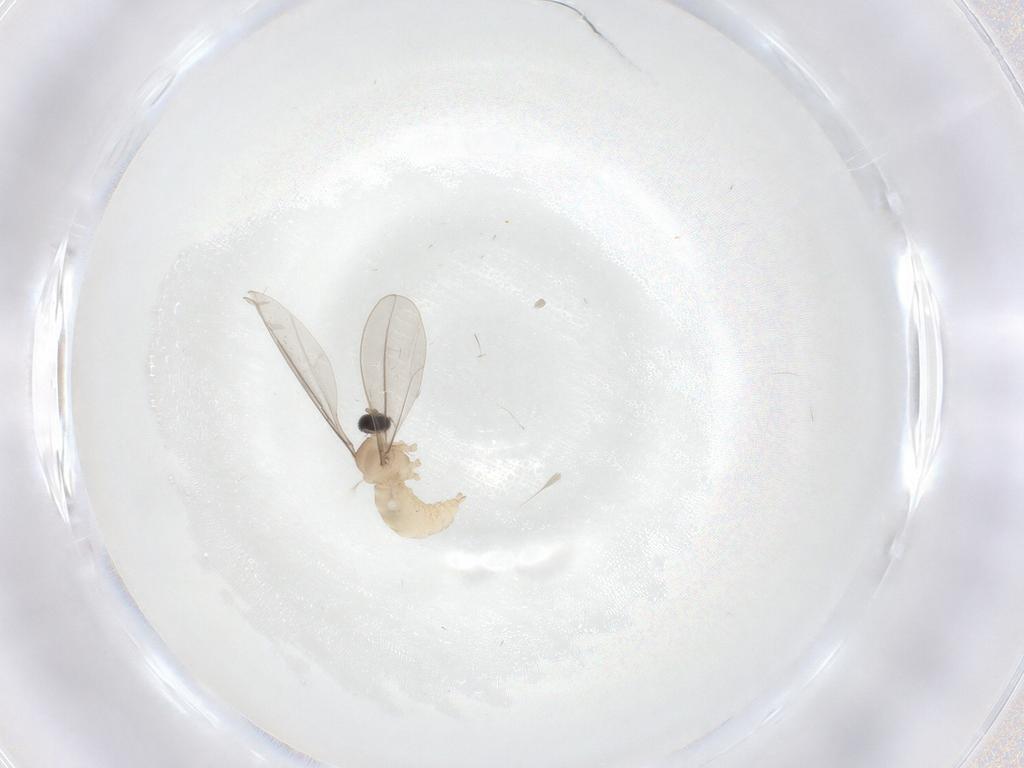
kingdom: Animalia
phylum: Arthropoda
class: Insecta
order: Diptera
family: Cecidomyiidae
